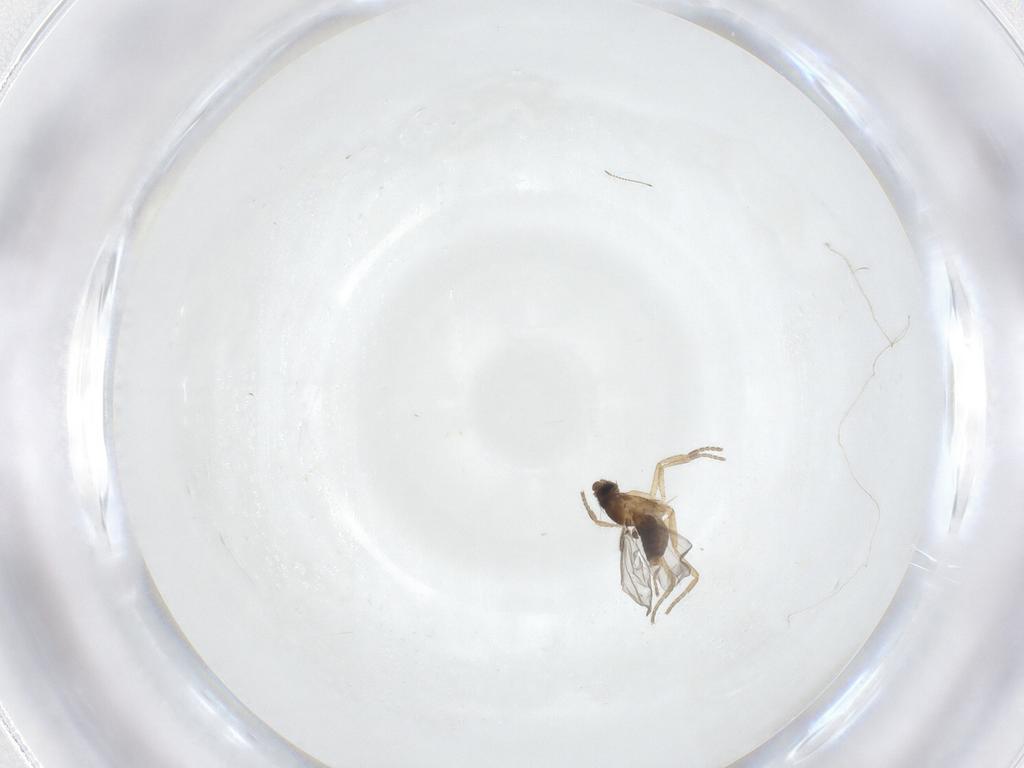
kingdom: Animalia
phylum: Arthropoda
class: Insecta
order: Diptera
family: Phoridae
